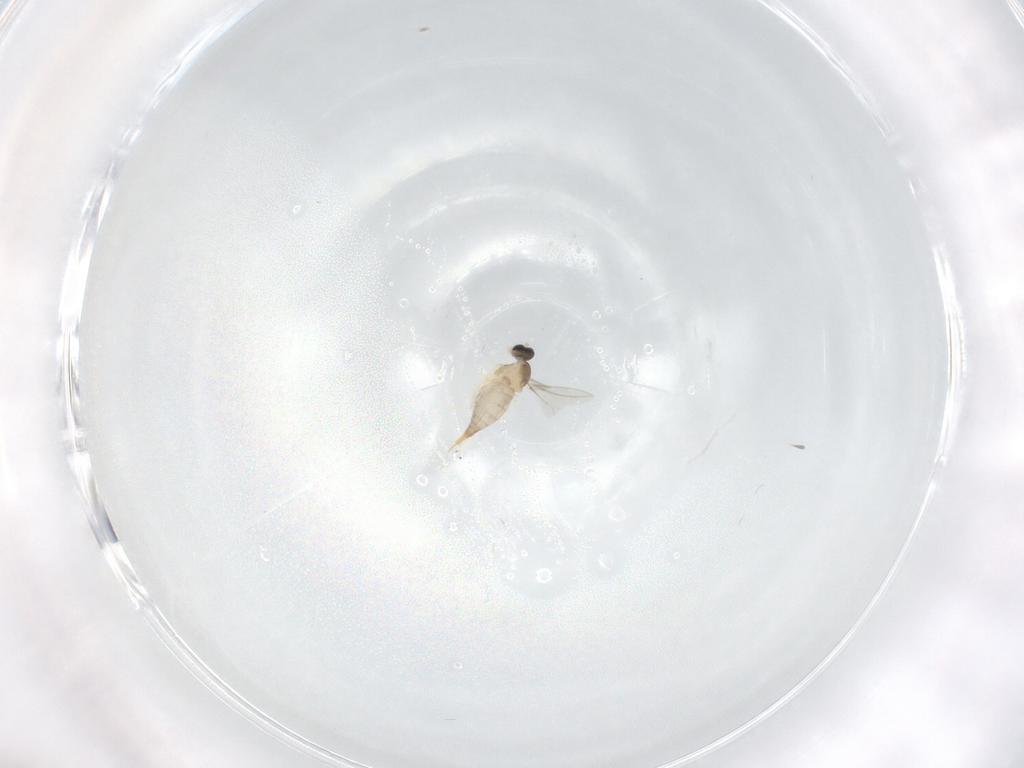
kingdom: Animalia
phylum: Arthropoda
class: Insecta
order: Diptera
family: Cecidomyiidae
